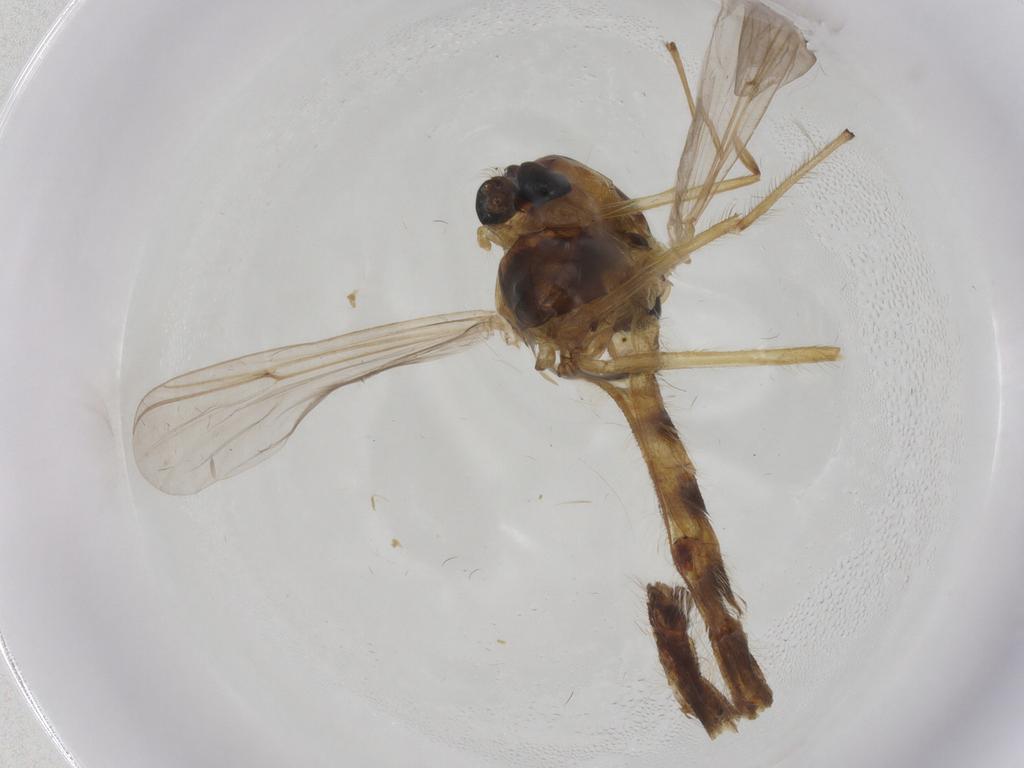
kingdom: Animalia
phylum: Arthropoda
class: Insecta
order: Diptera
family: Chironomidae
